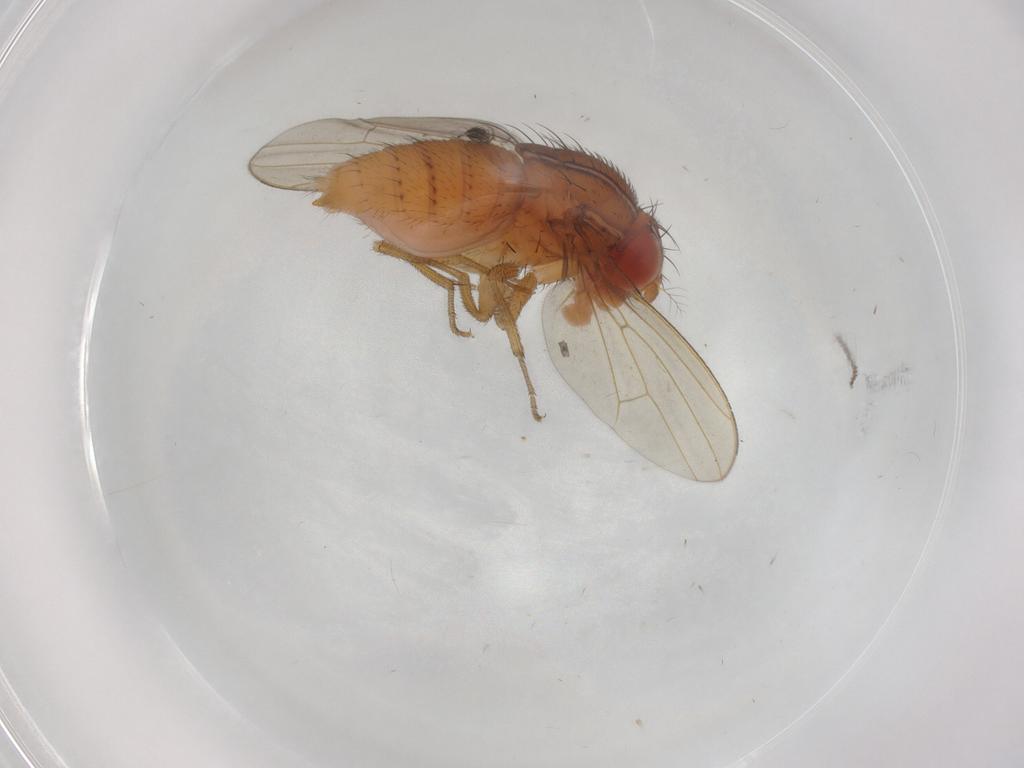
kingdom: Animalia
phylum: Arthropoda
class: Insecta
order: Diptera
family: Drosophilidae
